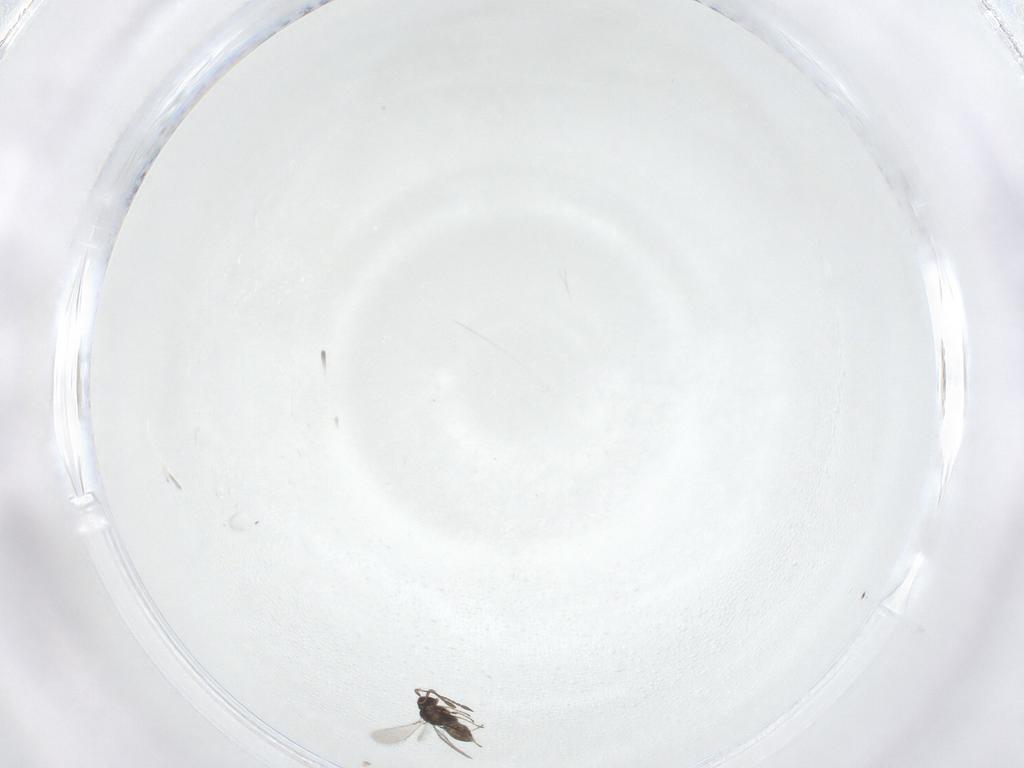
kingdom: Animalia
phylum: Arthropoda
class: Insecta
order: Hymenoptera
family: Mymaridae
